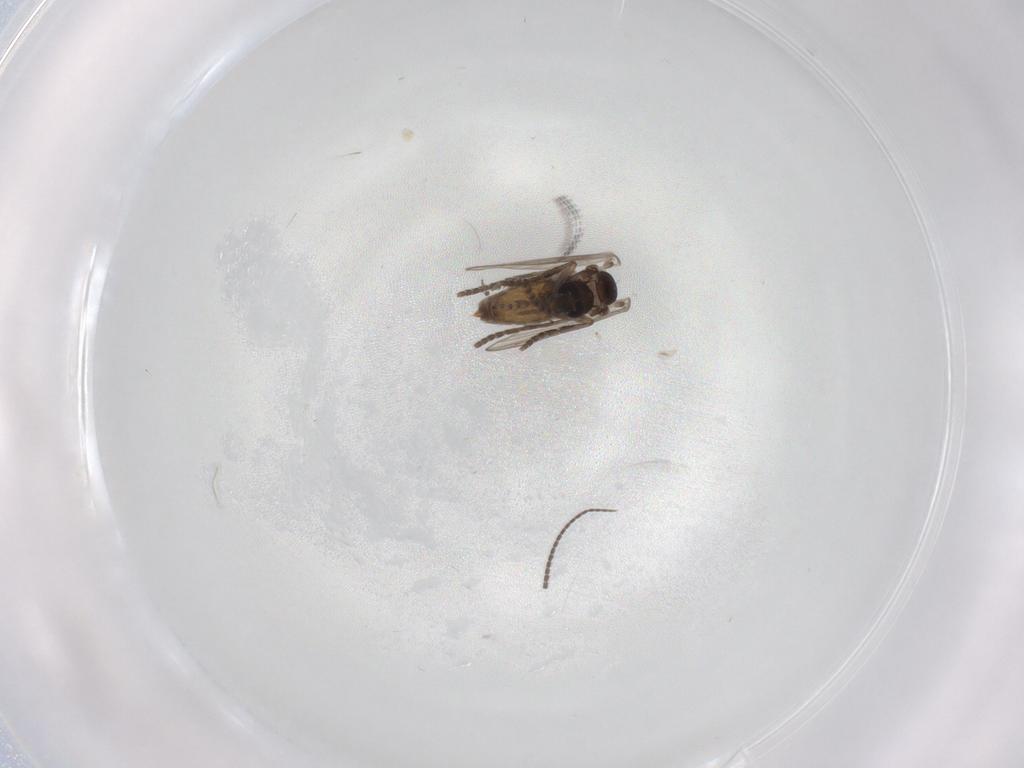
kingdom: Animalia
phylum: Arthropoda
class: Insecta
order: Diptera
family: Psychodidae
